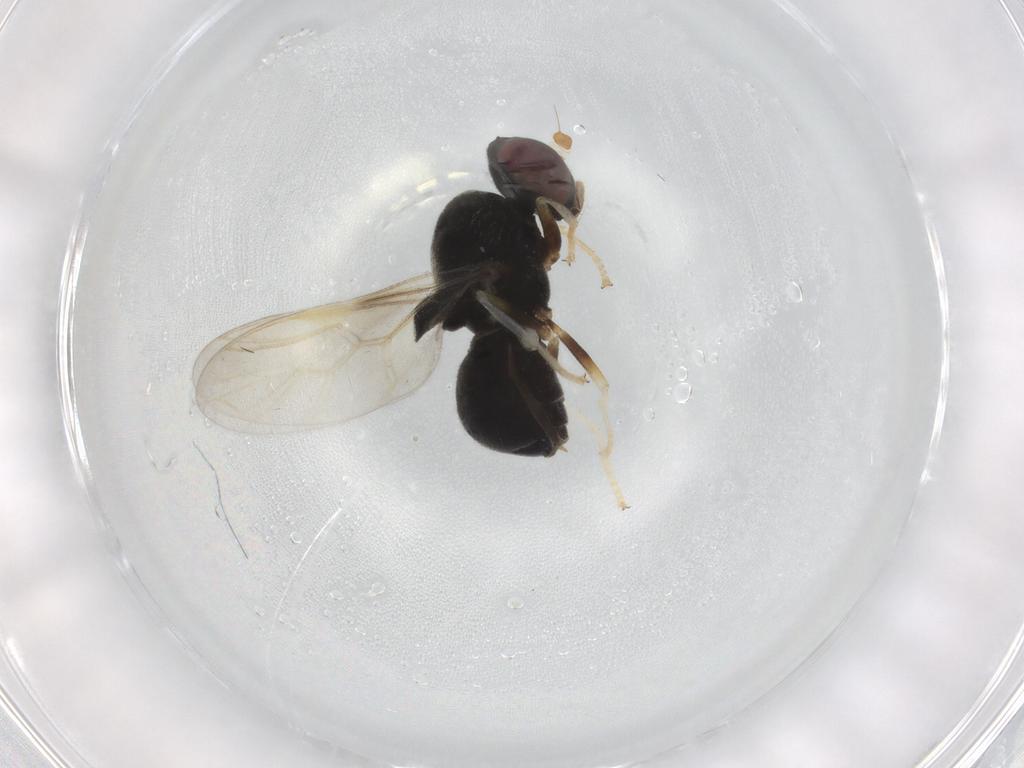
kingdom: Animalia
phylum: Arthropoda
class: Insecta
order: Diptera
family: Stratiomyidae
